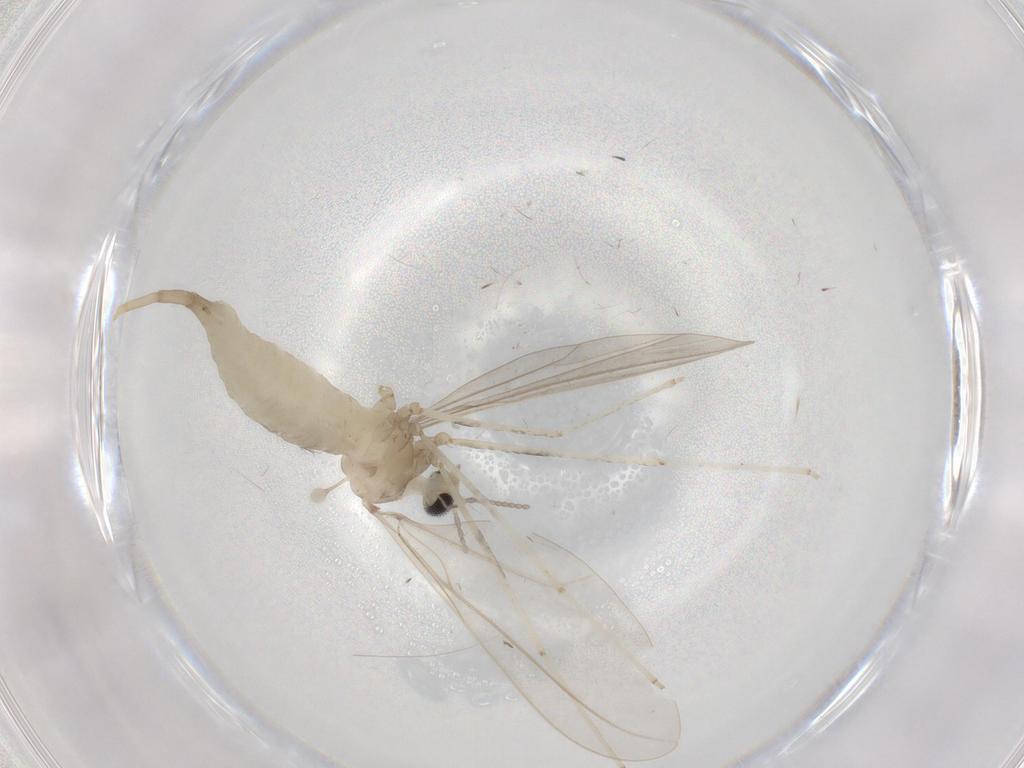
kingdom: Animalia
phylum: Arthropoda
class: Insecta
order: Diptera
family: Cecidomyiidae
